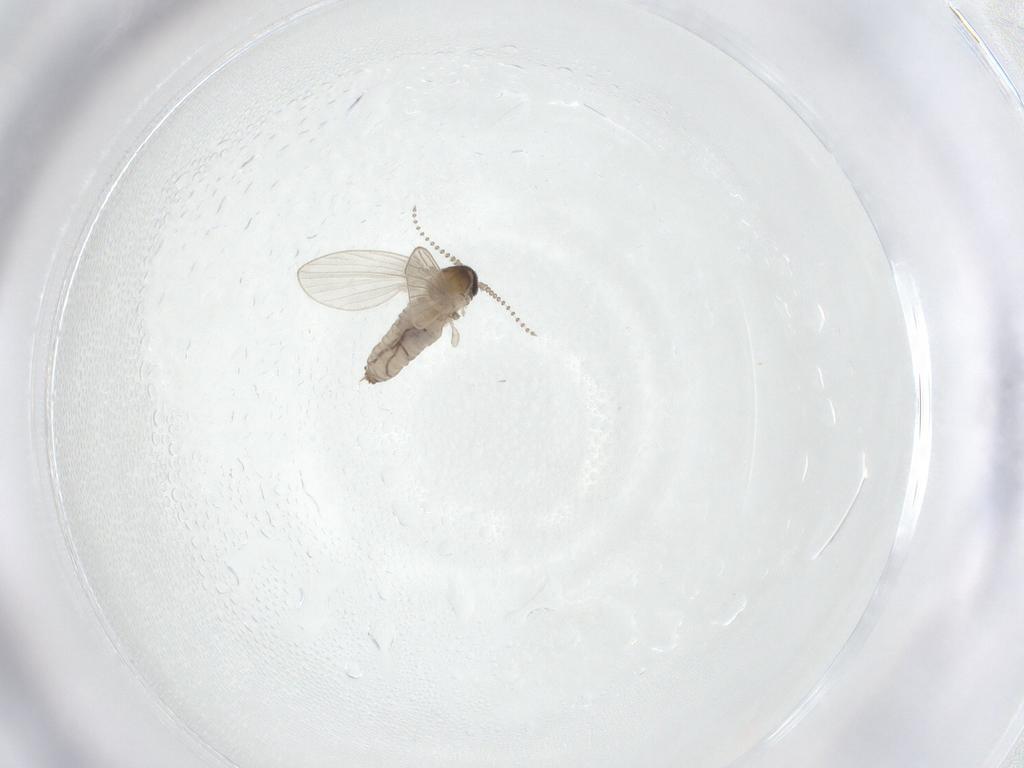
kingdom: Animalia
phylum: Arthropoda
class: Insecta
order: Diptera
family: Psychodidae
